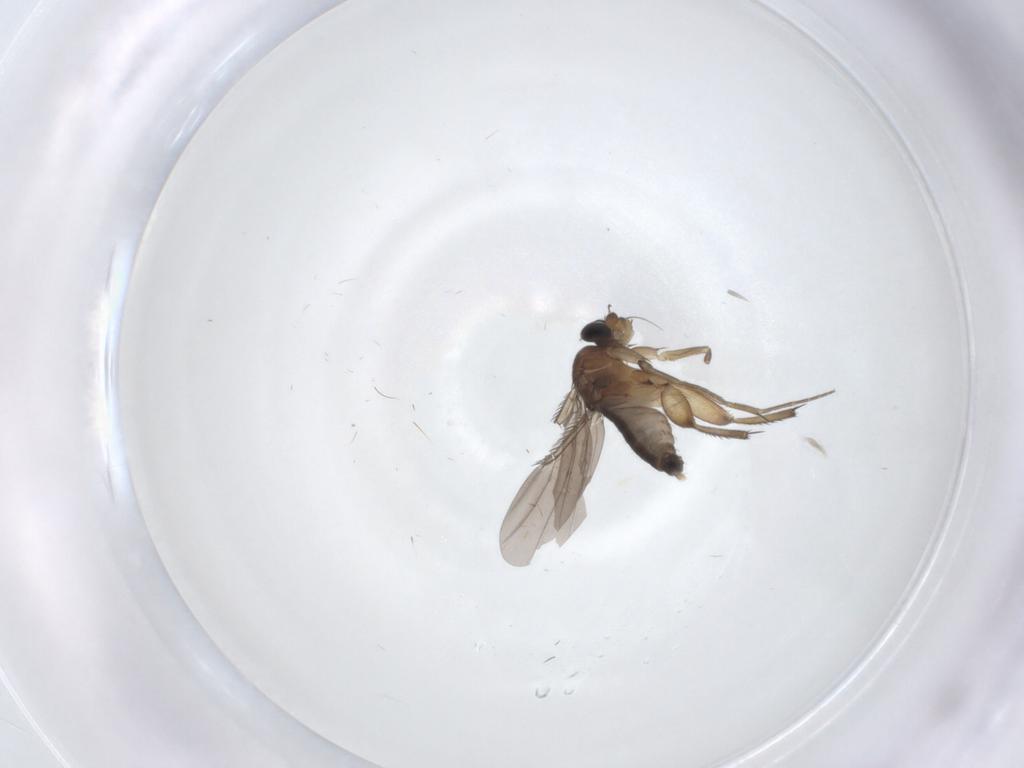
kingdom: Animalia
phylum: Arthropoda
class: Insecta
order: Diptera
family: Phoridae
